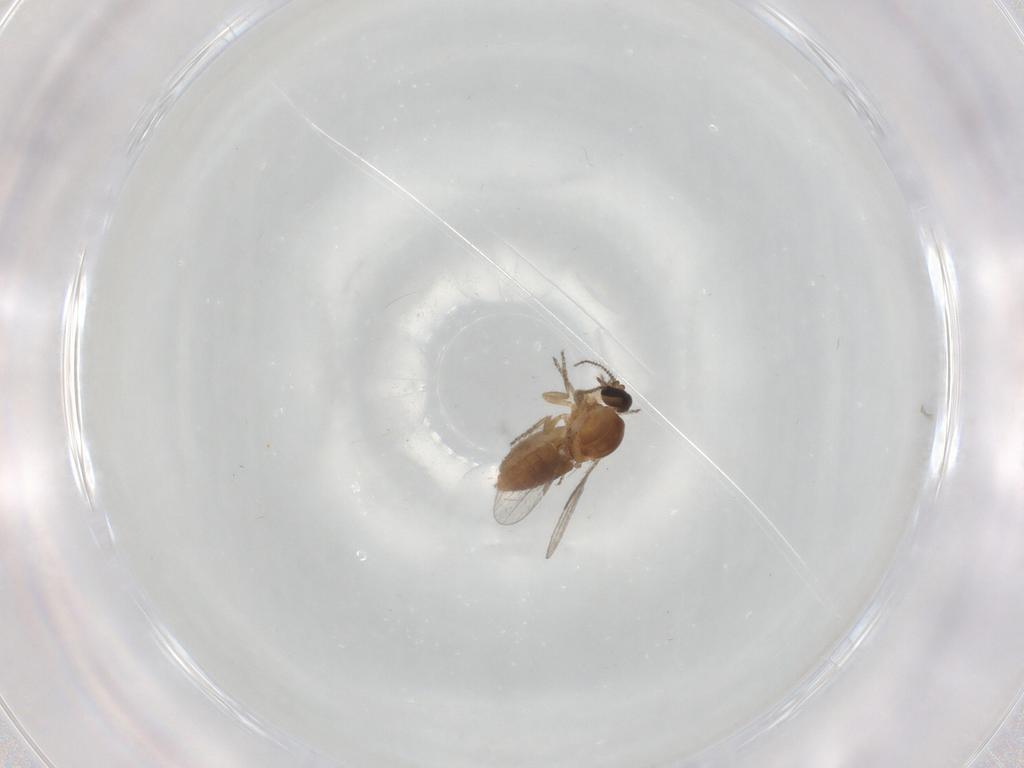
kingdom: Animalia
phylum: Arthropoda
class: Insecta
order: Diptera
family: Ceratopogonidae
